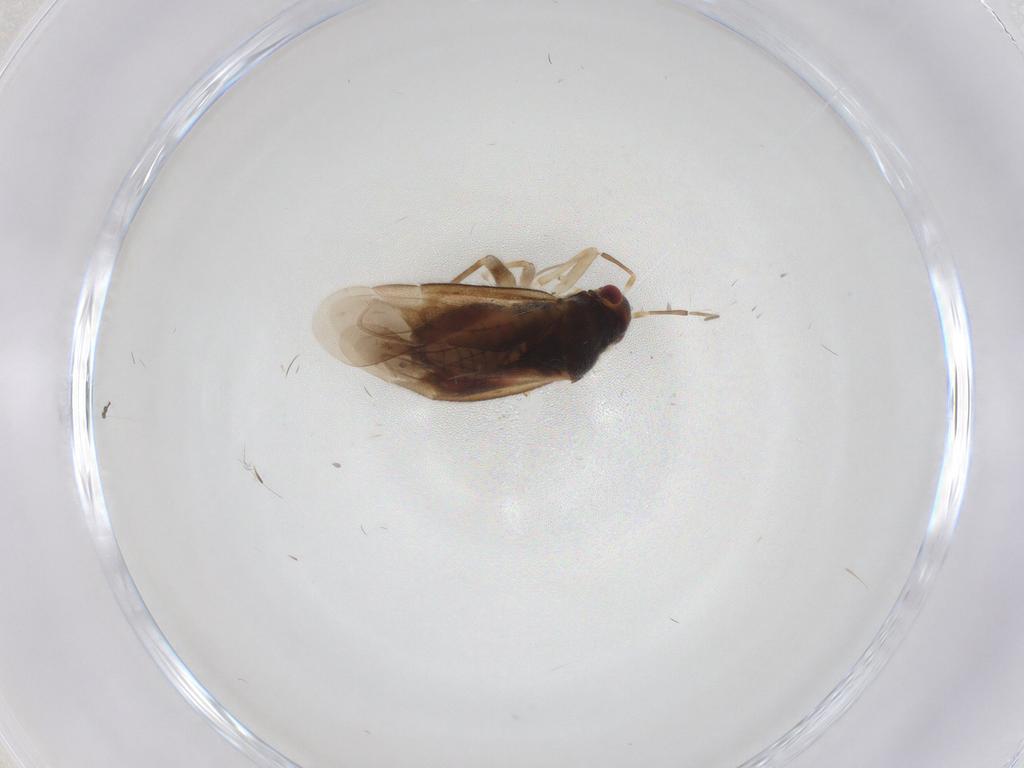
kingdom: Animalia
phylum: Arthropoda
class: Insecta
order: Hemiptera
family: Miridae
